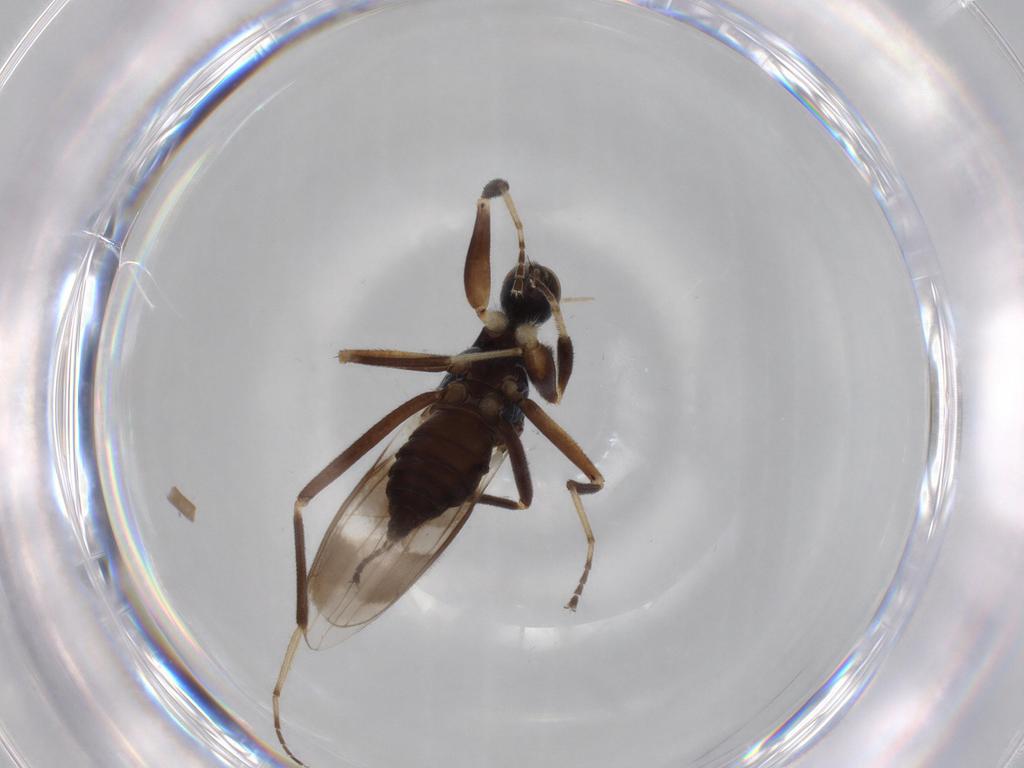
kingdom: Animalia
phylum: Arthropoda
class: Insecta
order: Diptera
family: Hybotidae
